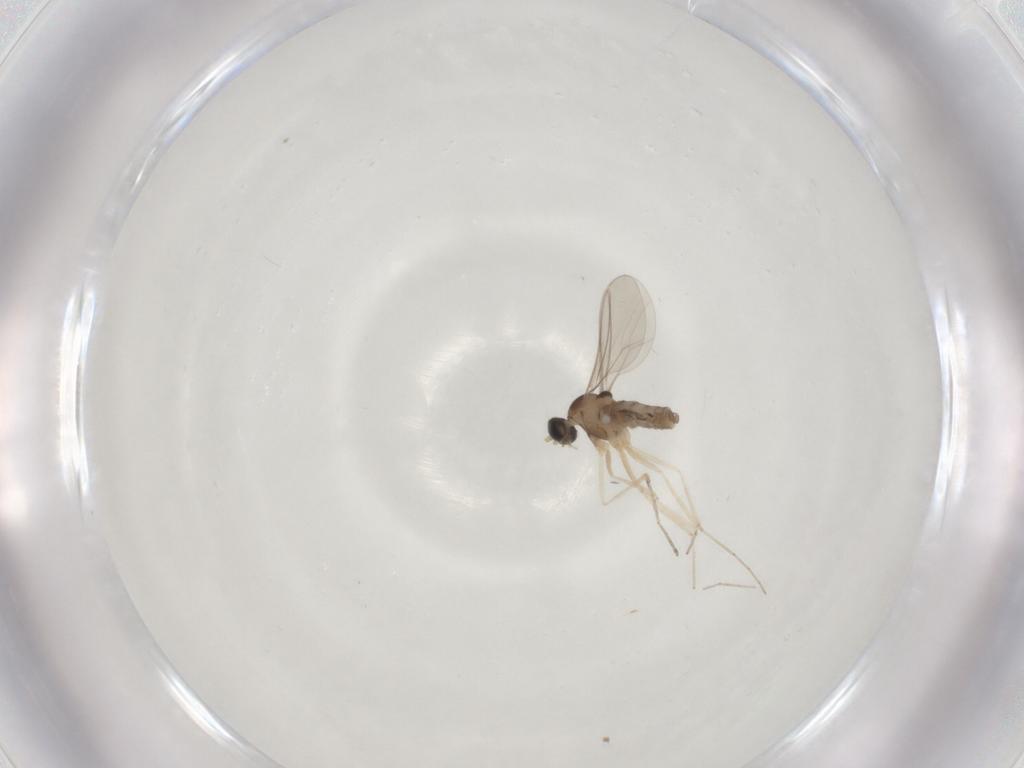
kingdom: Animalia
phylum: Arthropoda
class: Insecta
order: Diptera
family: Cecidomyiidae
